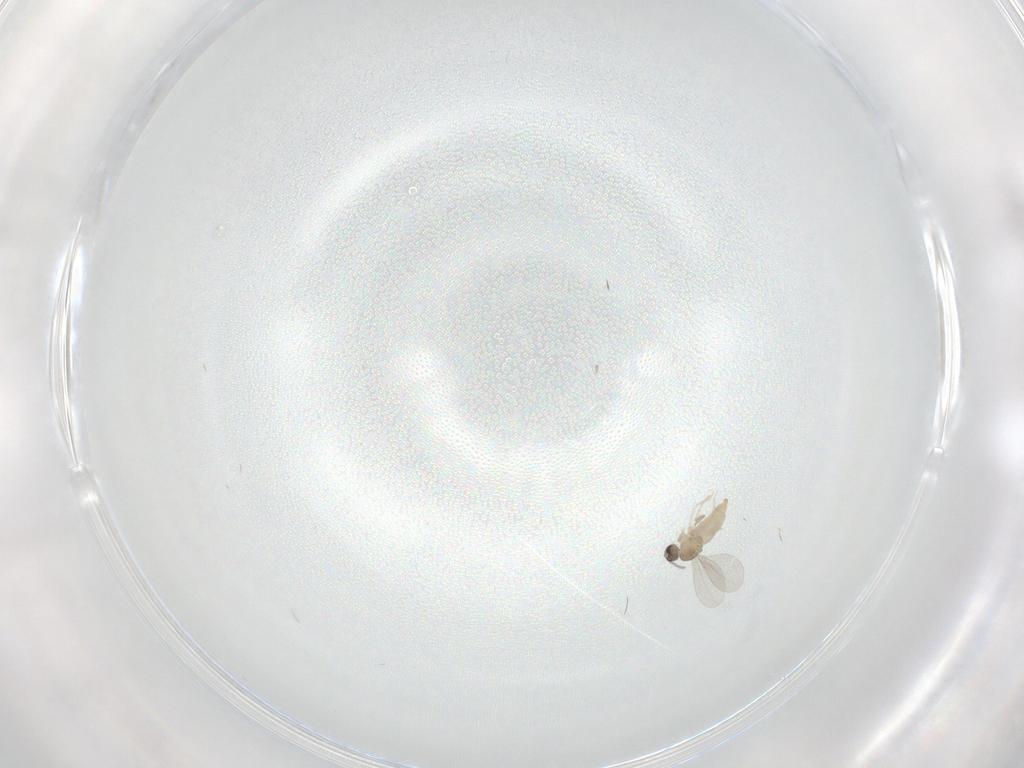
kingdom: Animalia
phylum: Arthropoda
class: Insecta
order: Diptera
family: Cecidomyiidae
